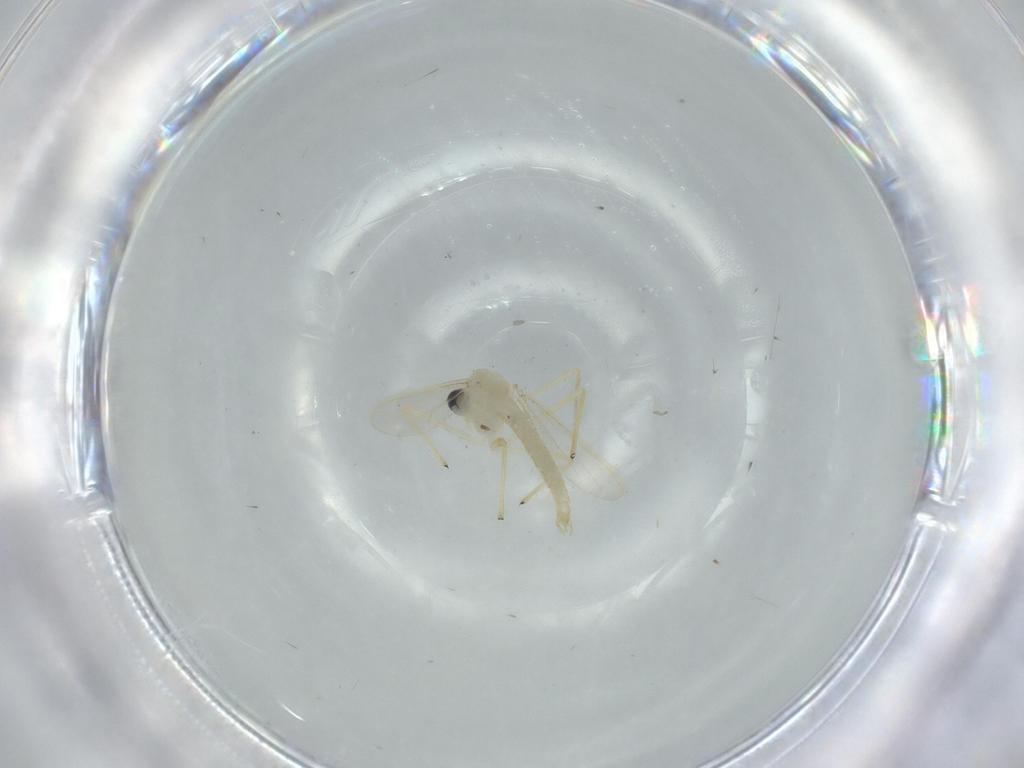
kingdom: Animalia
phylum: Arthropoda
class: Insecta
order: Diptera
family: Chironomidae
